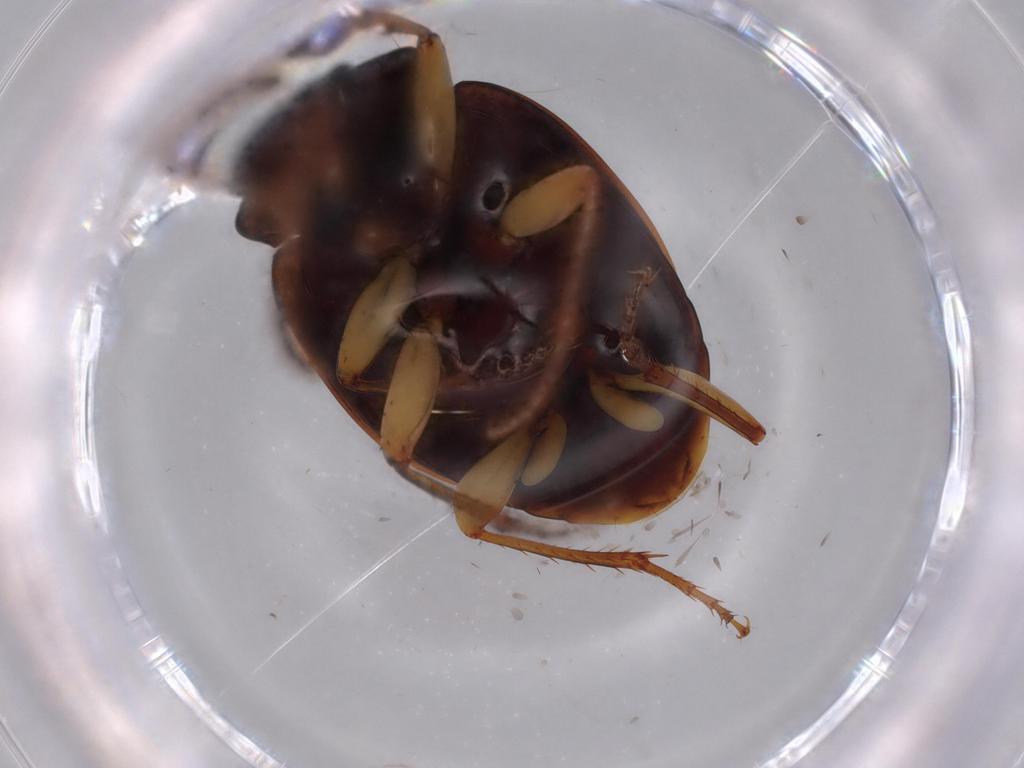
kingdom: Animalia
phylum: Arthropoda
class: Insecta
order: Coleoptera
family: Carabidae
